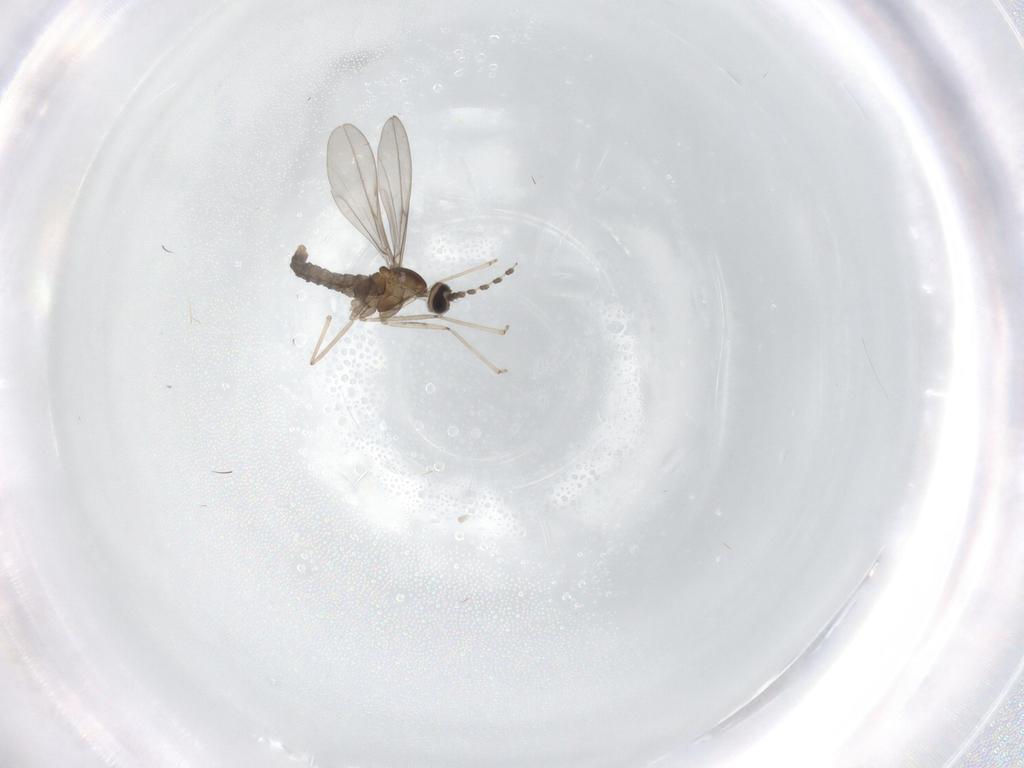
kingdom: Animalia
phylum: Arthropoda
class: Insecta
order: Diptera
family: Cecidomyiidae
